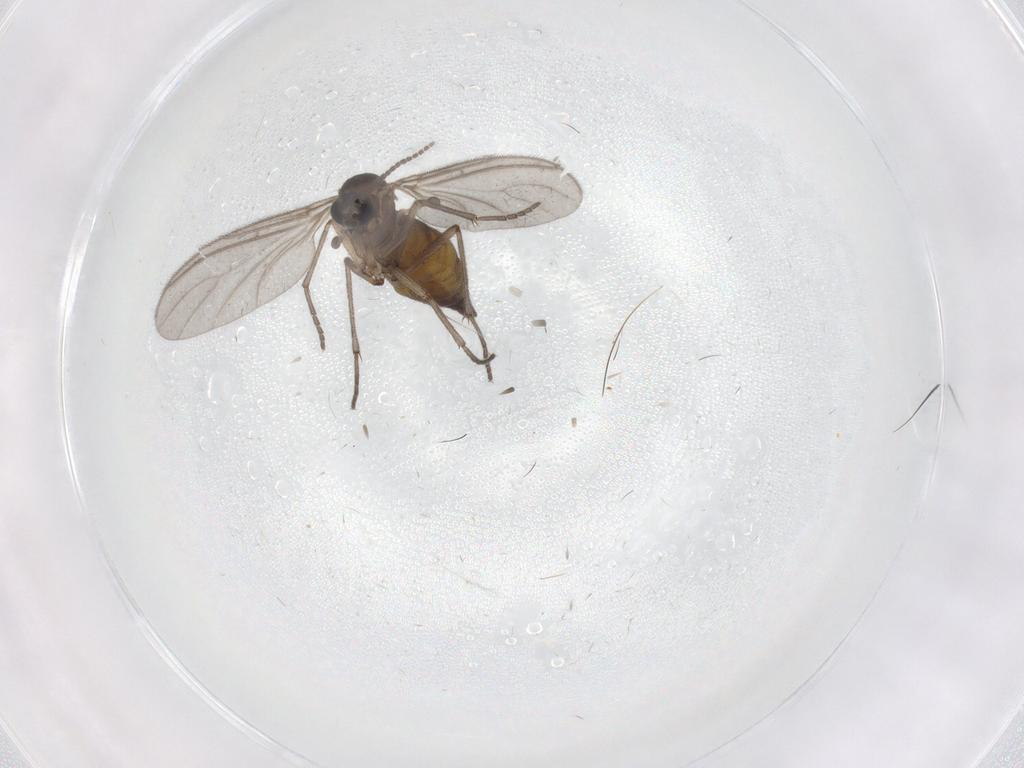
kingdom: Animalia
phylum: Arthropoda
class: Insecta
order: Diptera
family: Sciaridae
